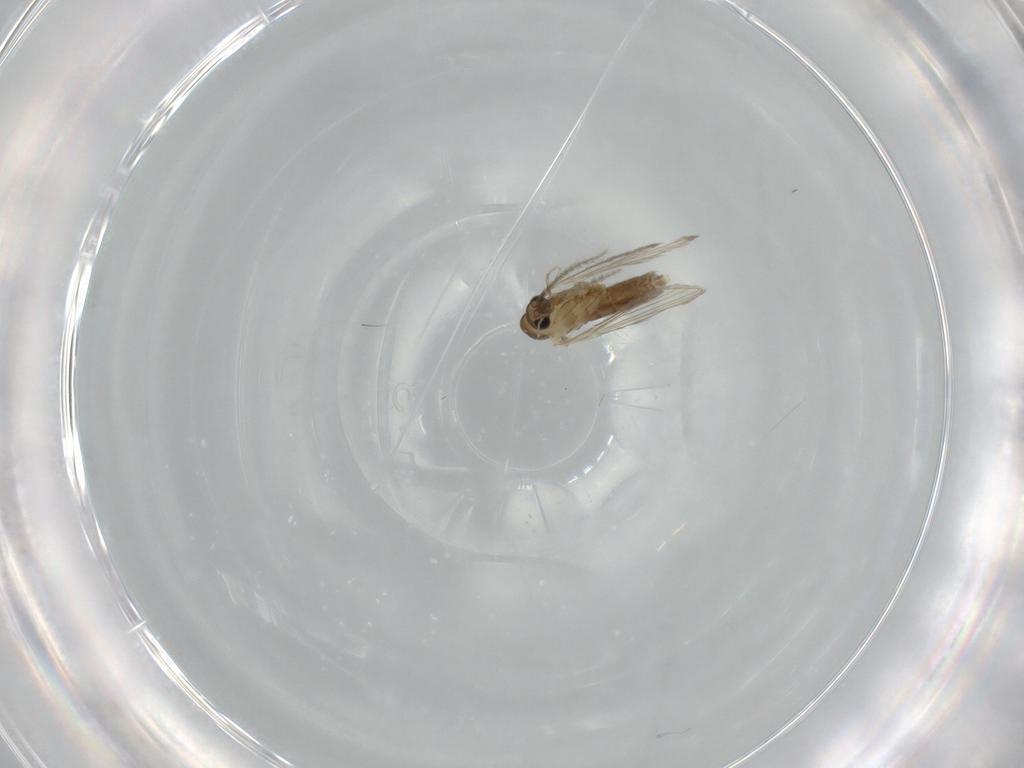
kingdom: Animalia
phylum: Arthropoda
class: Insecta
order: Diptera
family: Psychodidae
